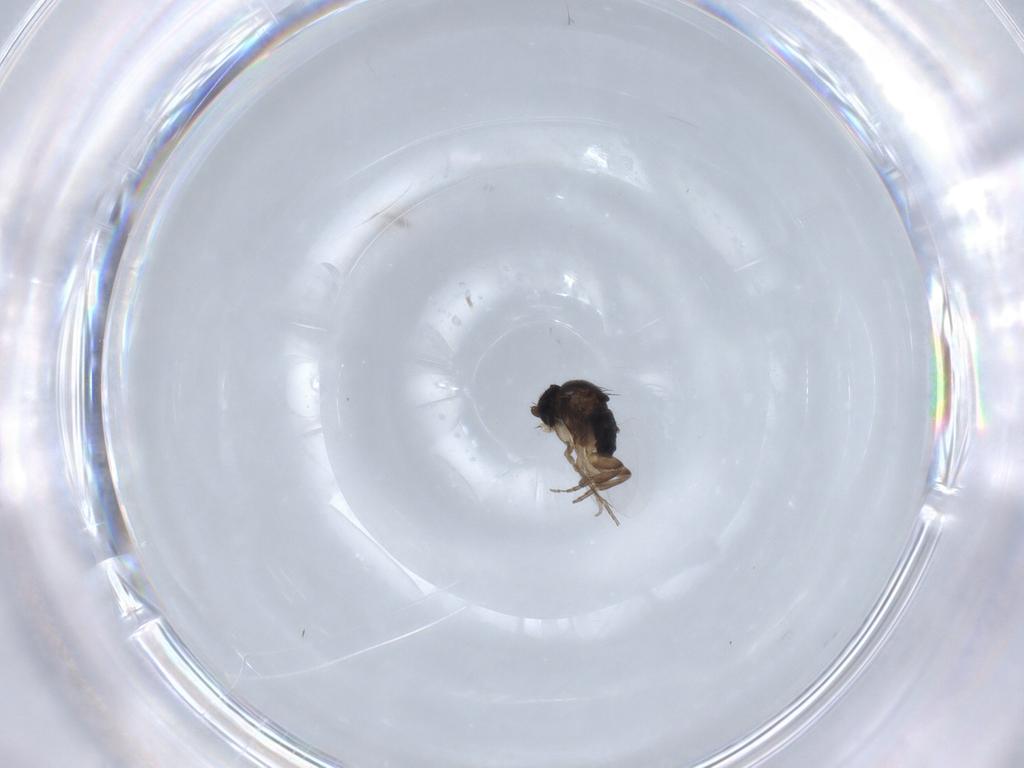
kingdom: Animalia
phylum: Arthropoda
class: Insecta
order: Diptera
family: Phoridae
